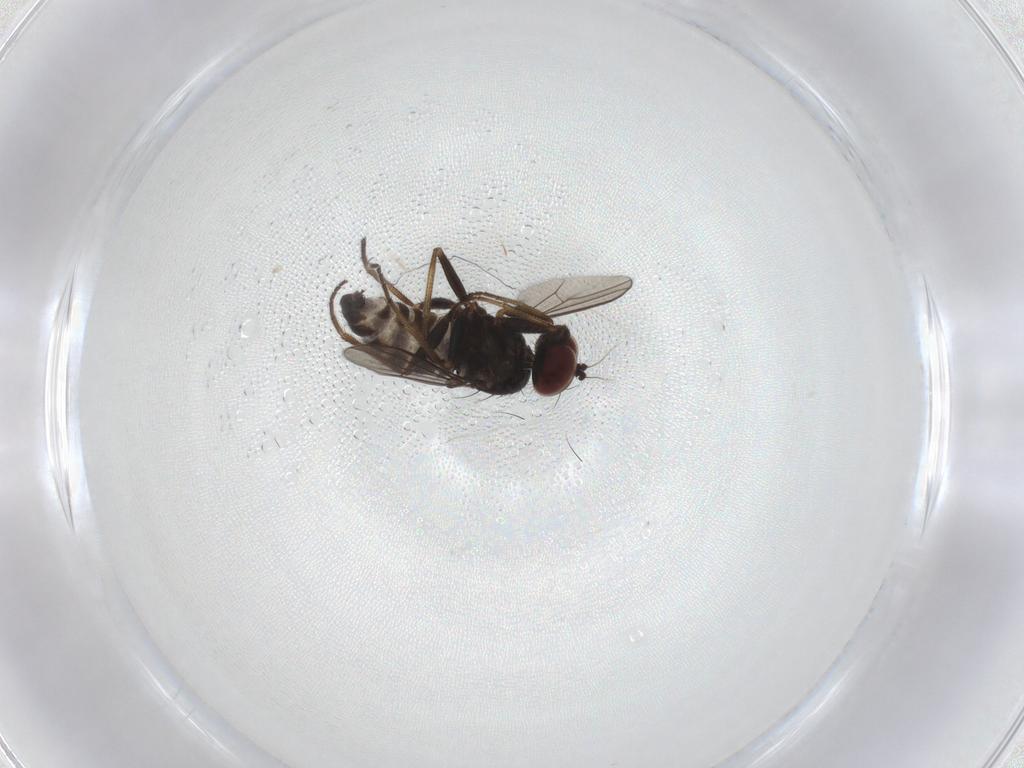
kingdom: Animalia
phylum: Arthropoda
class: Insecta
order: Diptera
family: Dolichopodidae
